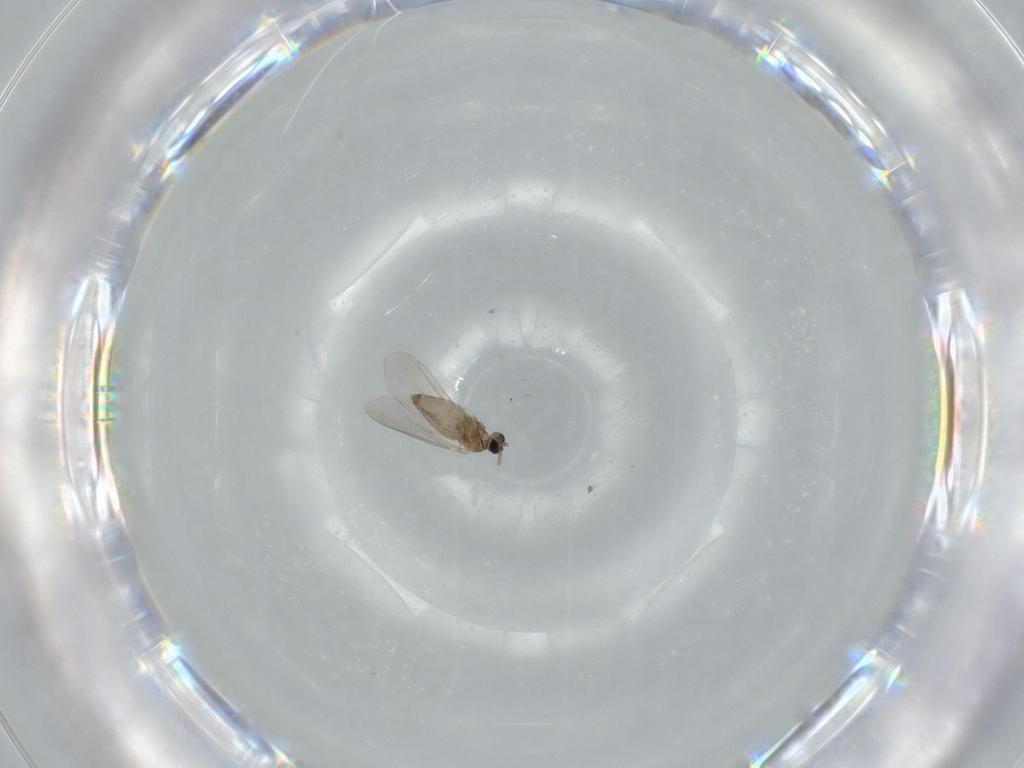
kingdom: Animalia
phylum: Arthropoda
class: Insecta
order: Diptera
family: Cecidomyiidae
